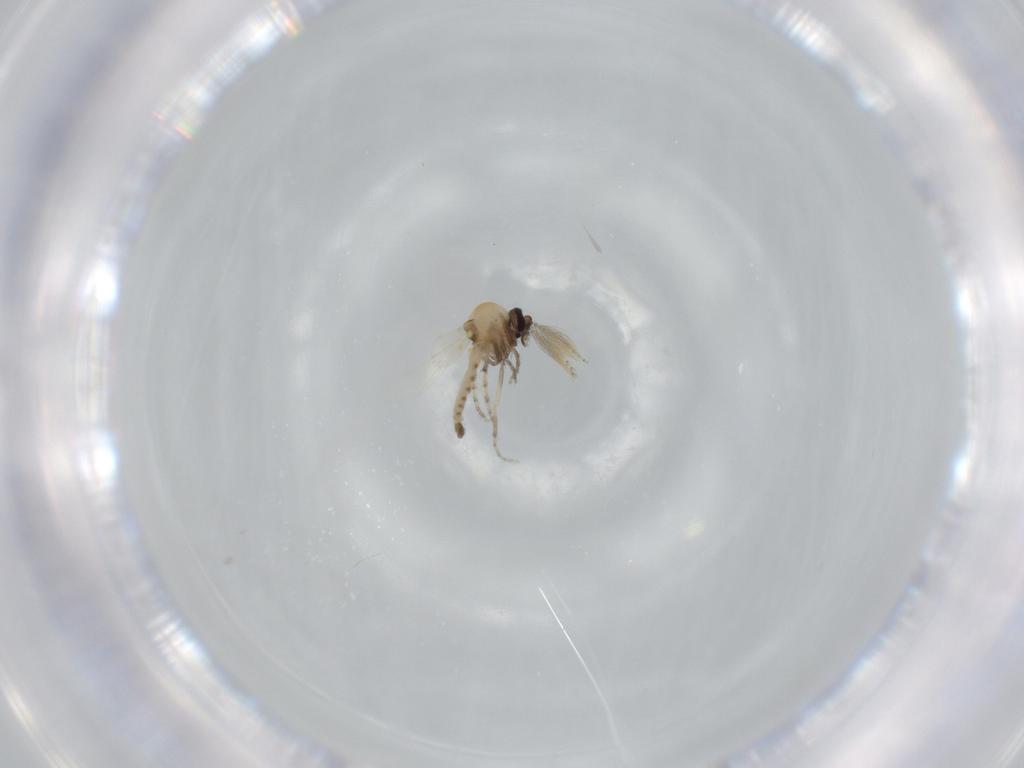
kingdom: Animalia
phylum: Arthropoda
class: Insecta
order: Diptera
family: Ceratopogonidae
